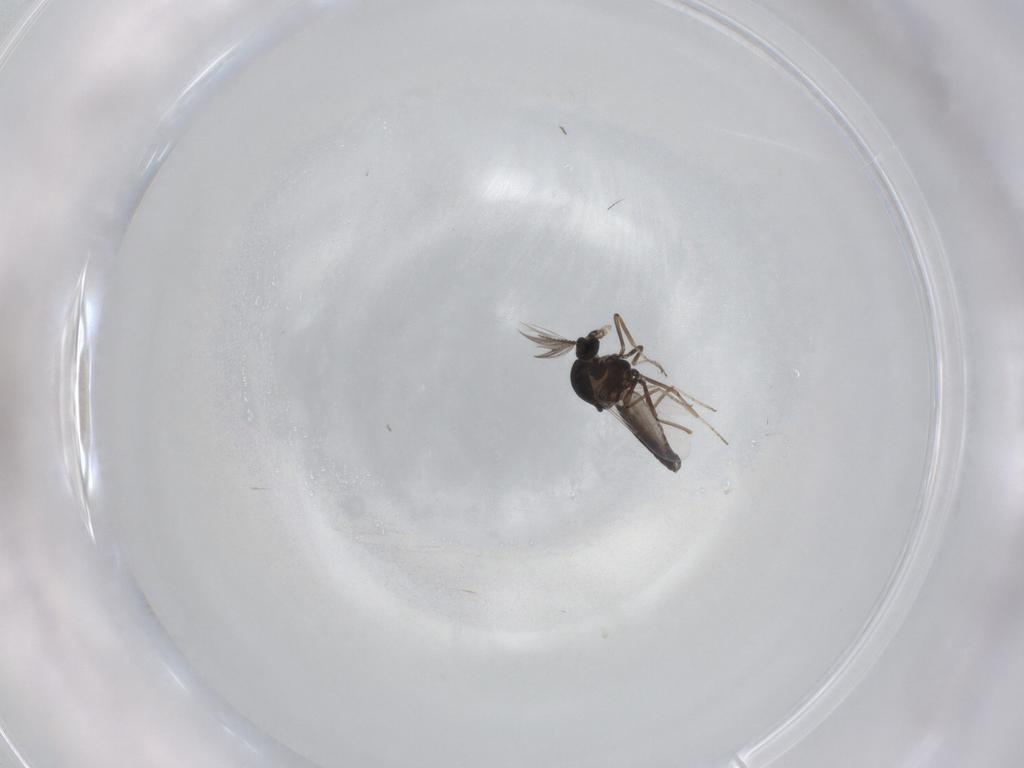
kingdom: Animalia
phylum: Arthropoda
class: Insecta
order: Diptera
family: Ceratopogonidae
